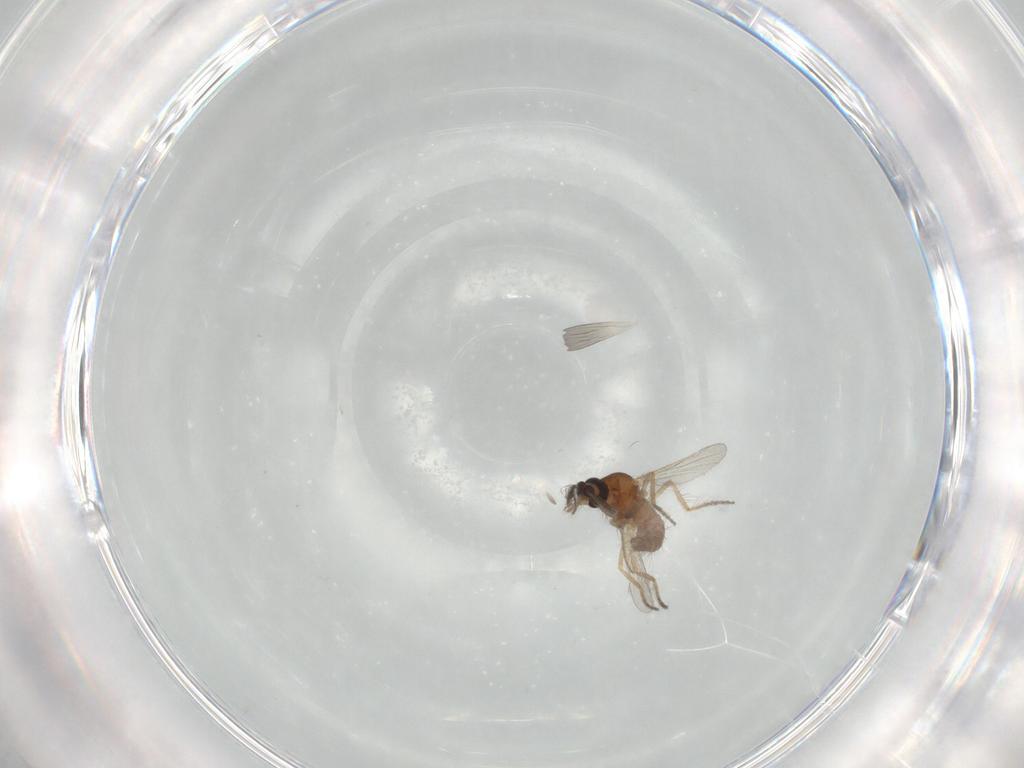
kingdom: Animalia
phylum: Arthropoda
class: Insecta
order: Diptera
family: Ceratopogonidae
